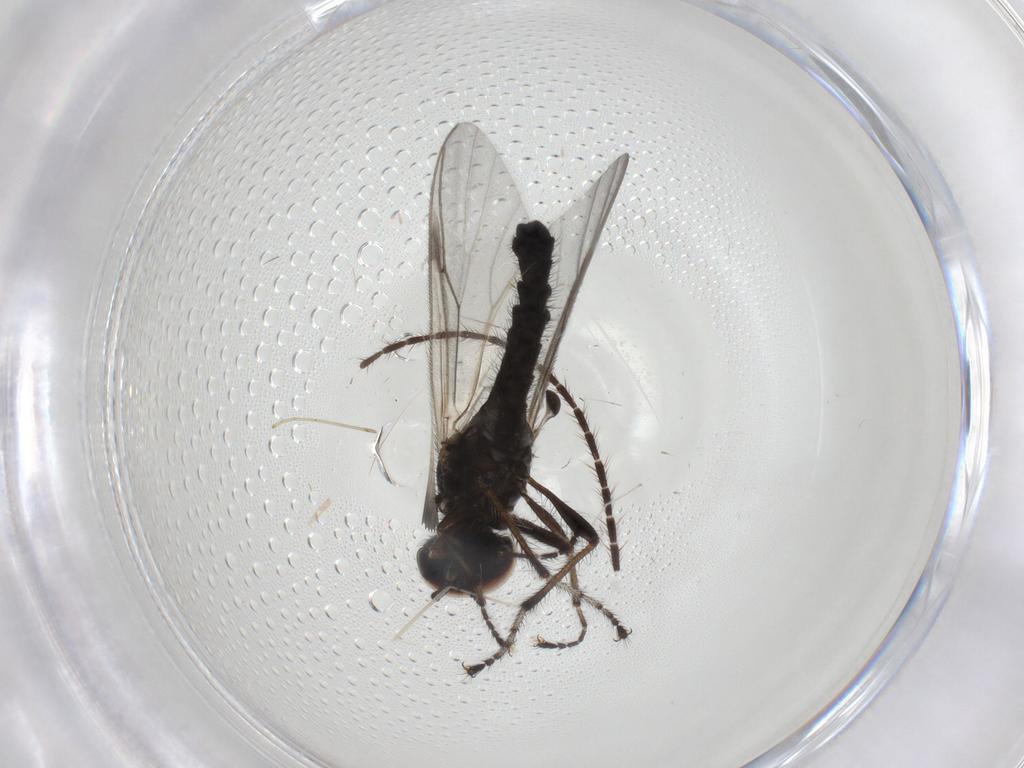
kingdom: Animalia
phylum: Arthropoda
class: Insecta
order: Diptera
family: Bibionidae
